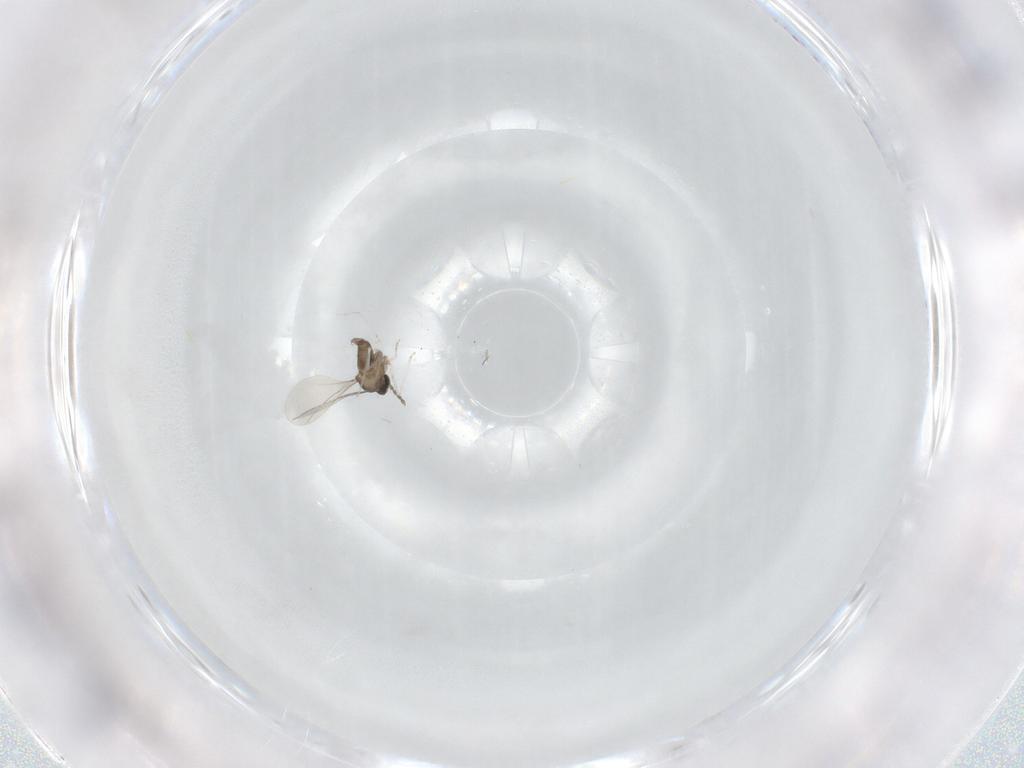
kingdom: Animalia
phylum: Arthropoda
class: Insecta
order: Diptera
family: Cecidomyiidae
